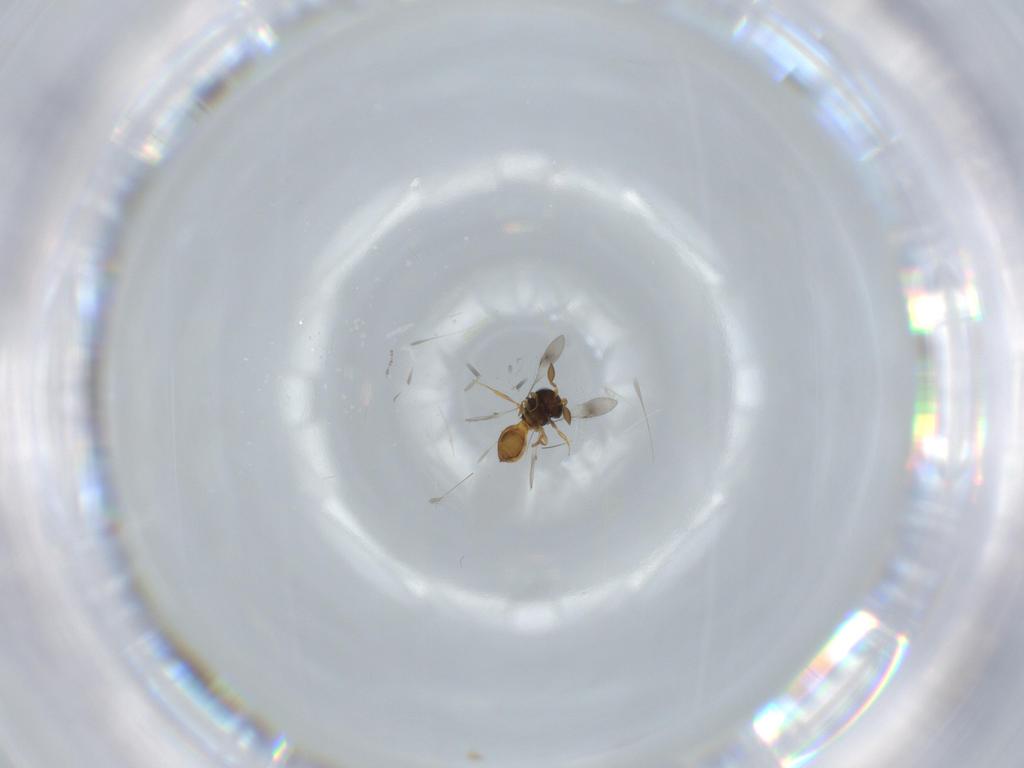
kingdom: Animalia
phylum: Arthropoda
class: Insecta
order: Hymenoptera
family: Scelionidae
